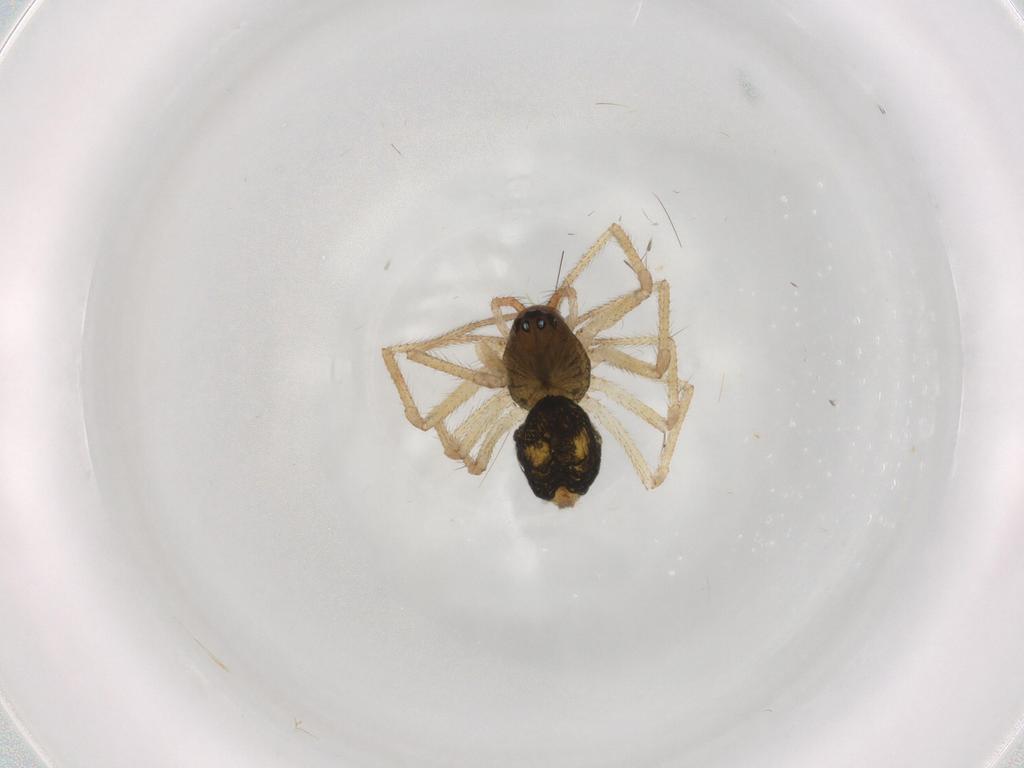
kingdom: Animalia
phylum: Arthropoda
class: Arachnida
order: Araneae
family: Linyphiidae
